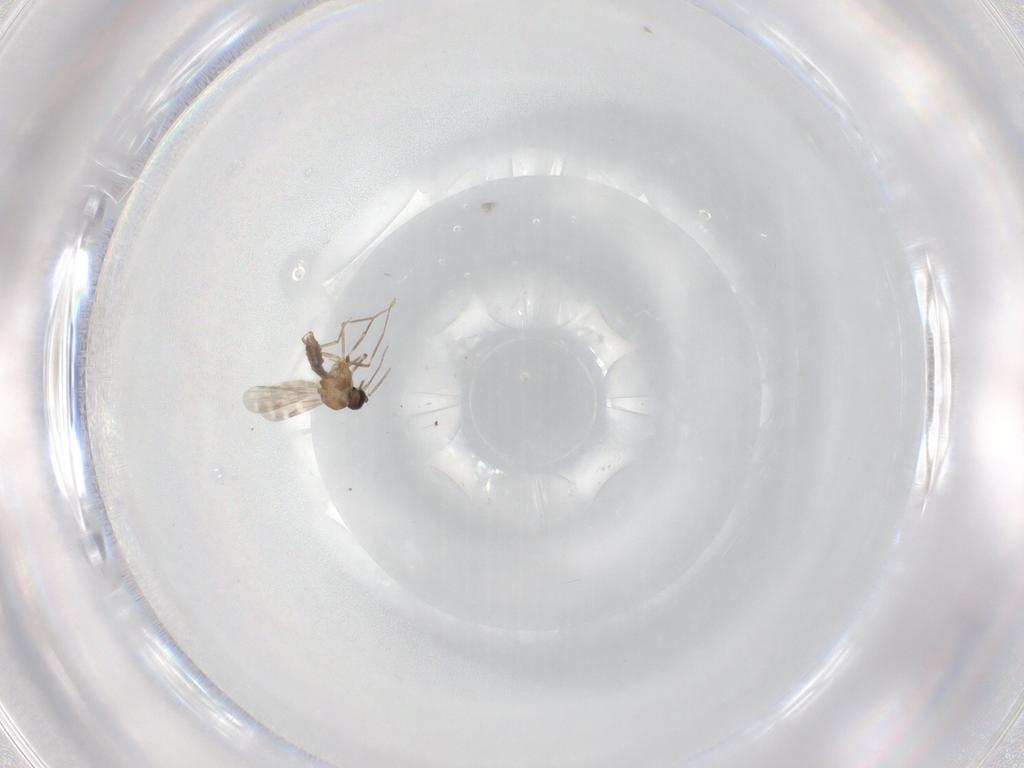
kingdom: Animalia
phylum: Arthropoda
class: Insecta
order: Diptera
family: Ceratopogonidae
